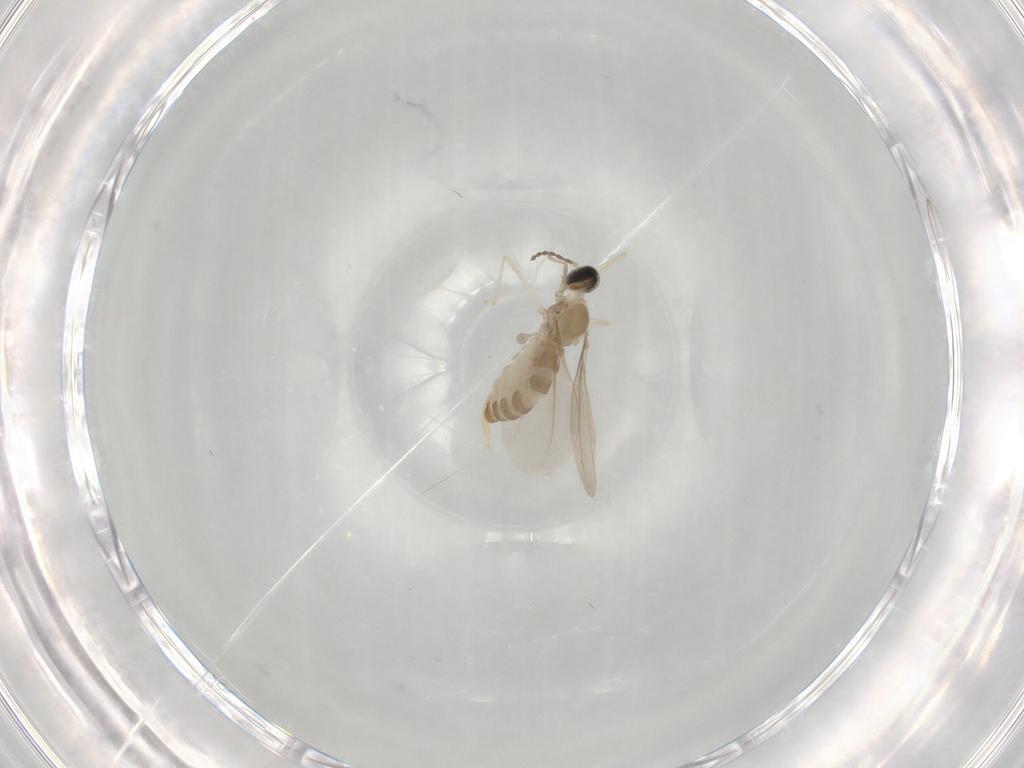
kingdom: Animalia
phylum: Arthropoda
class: Insecta
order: Diptera
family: Cecidomyiidae
